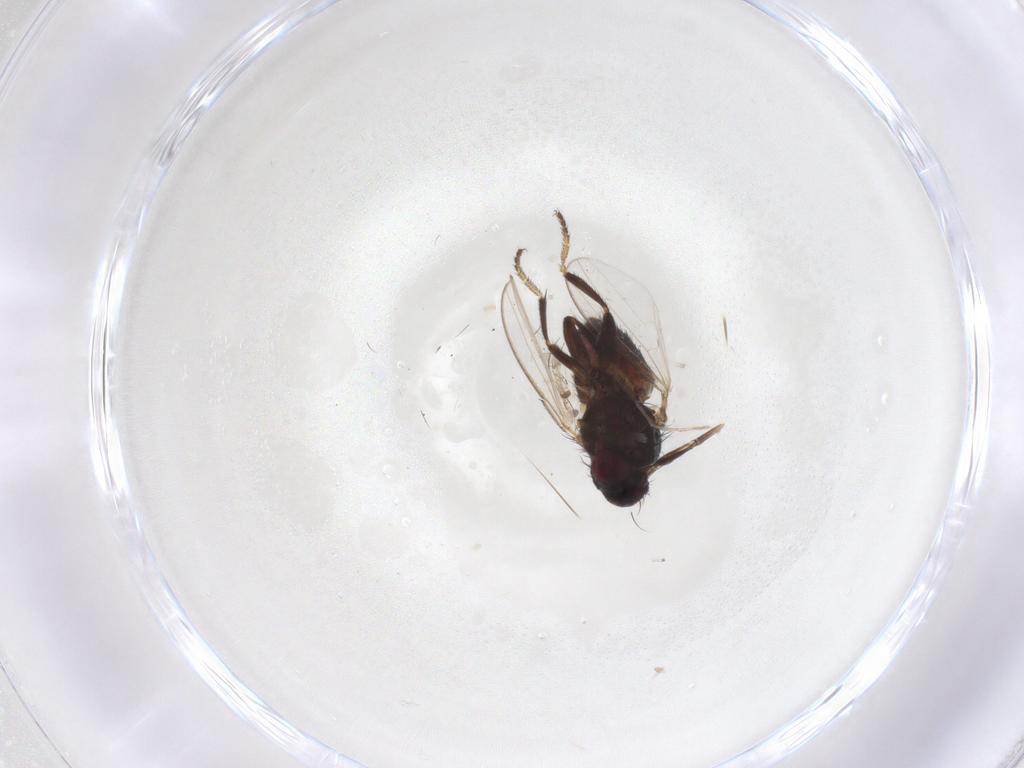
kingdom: Animalia
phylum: Arthropoda
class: Insecta
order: Diptera
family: Milichiidae
